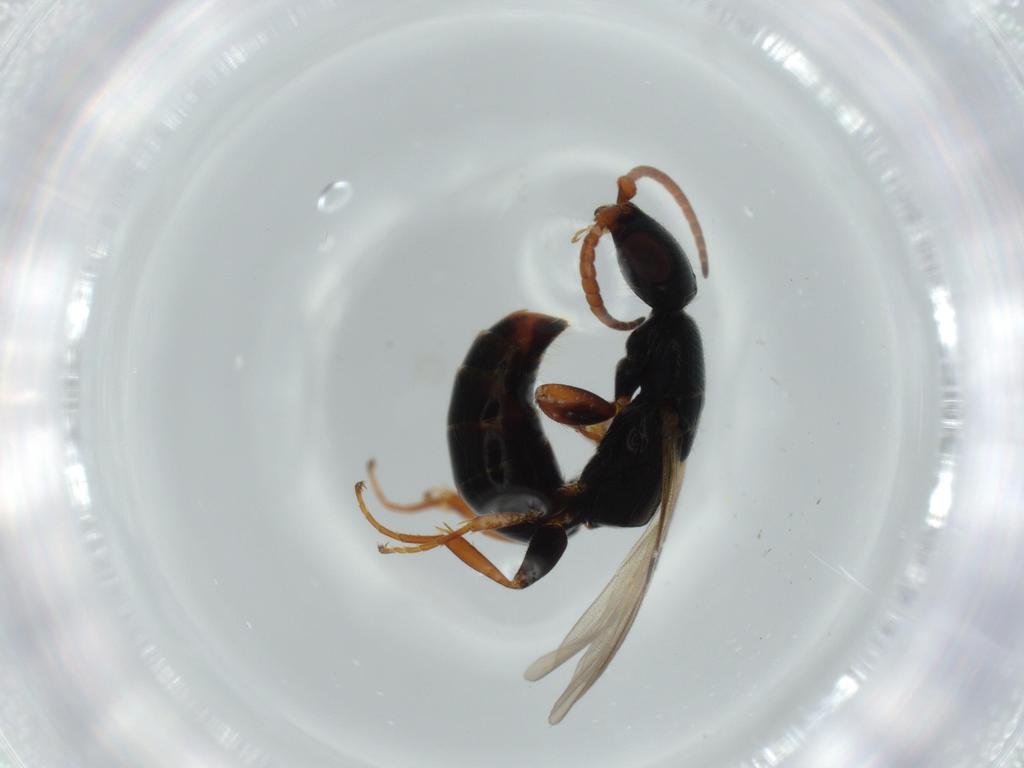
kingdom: Animalia
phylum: Arthropoda
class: Insecta
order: Hymenoptera
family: Bethylidae
